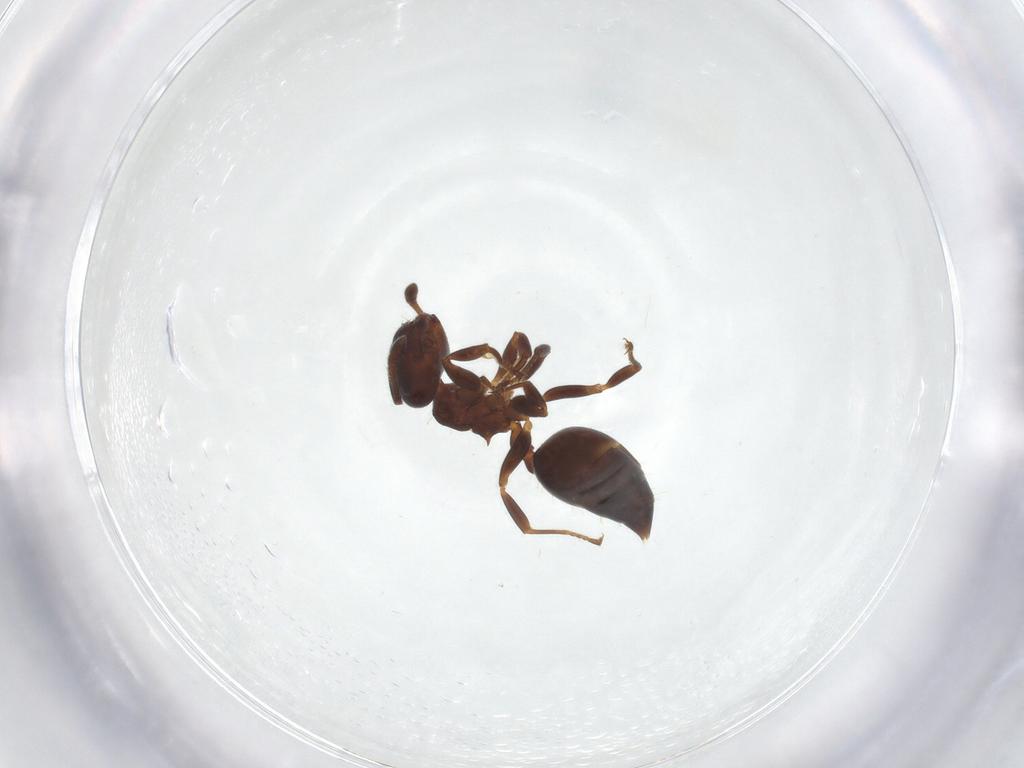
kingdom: Animalia
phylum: Arthropoda
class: Insecta
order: Hymenoptera
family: Formicidae
